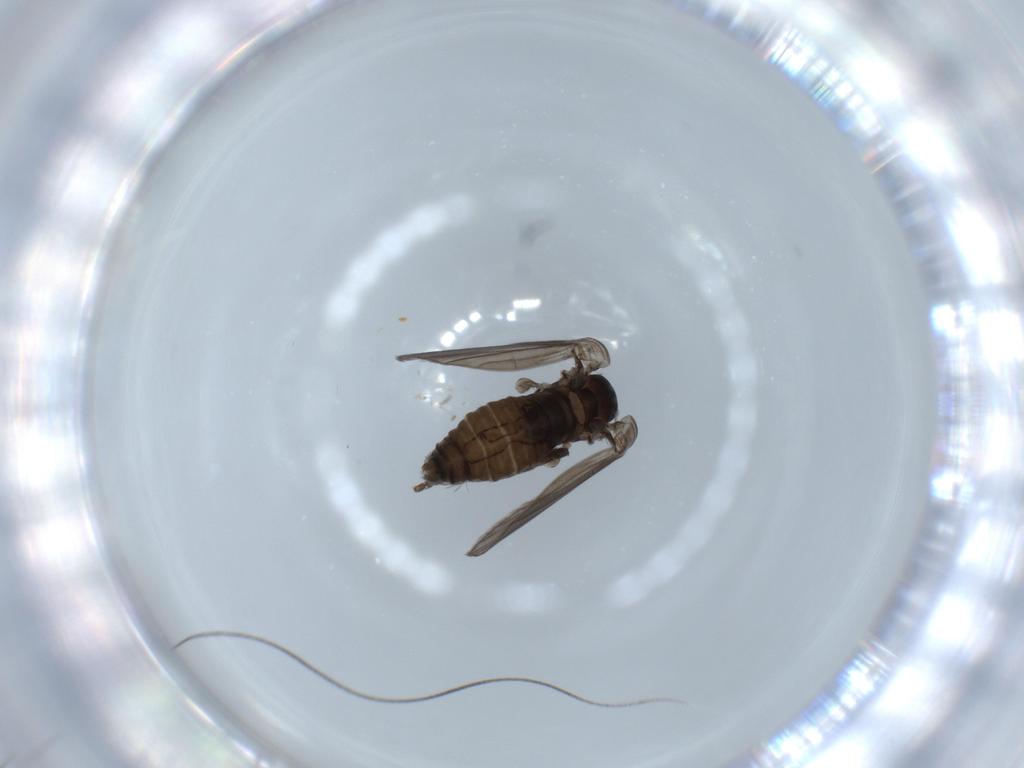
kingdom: Animalia
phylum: Arthropoda
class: Insecta
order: Diptera
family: Psychodidae
